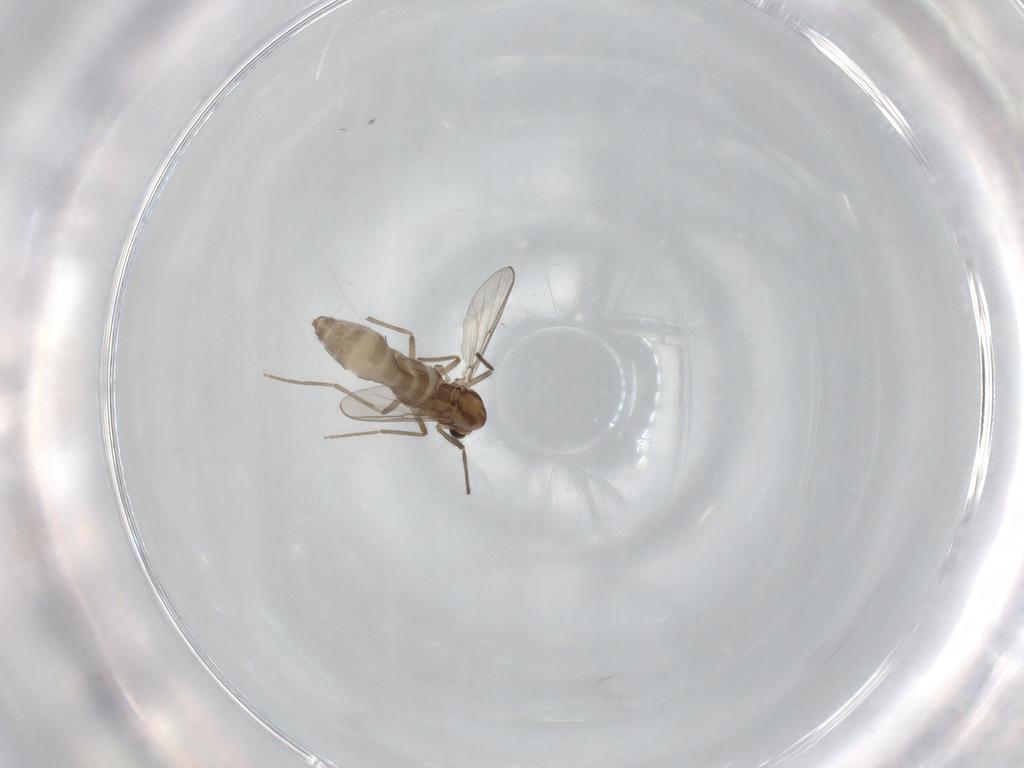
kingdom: Animalia
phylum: Arthropoda
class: Insecta
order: Diptera
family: Chironomidae
